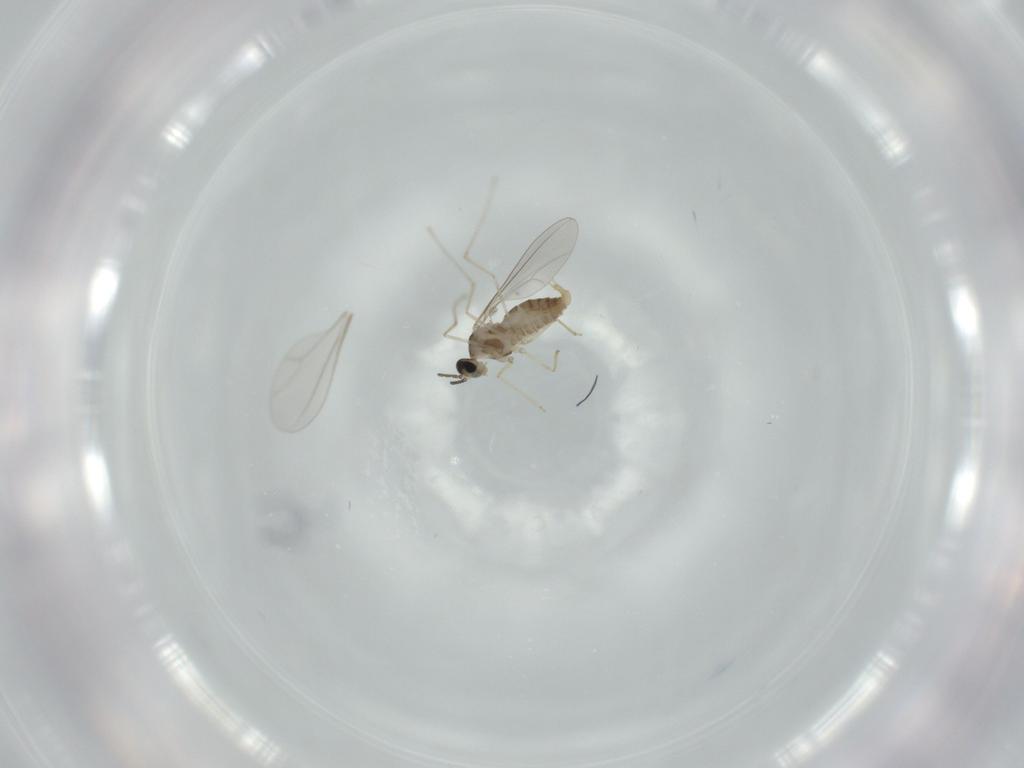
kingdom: Animalia
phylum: Arthropoda
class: Insecta
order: Diptera
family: Cecidomyiidae
